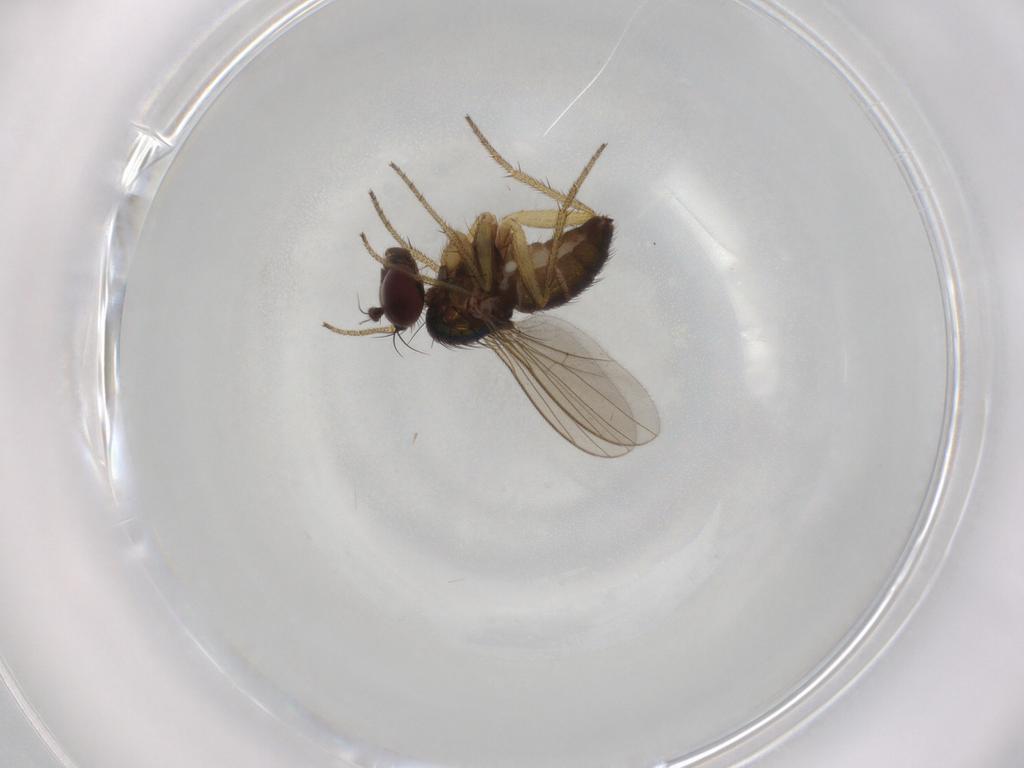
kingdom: Animalia
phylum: Arthropoda
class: Insecta
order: Diptera
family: Dolichopodidae
